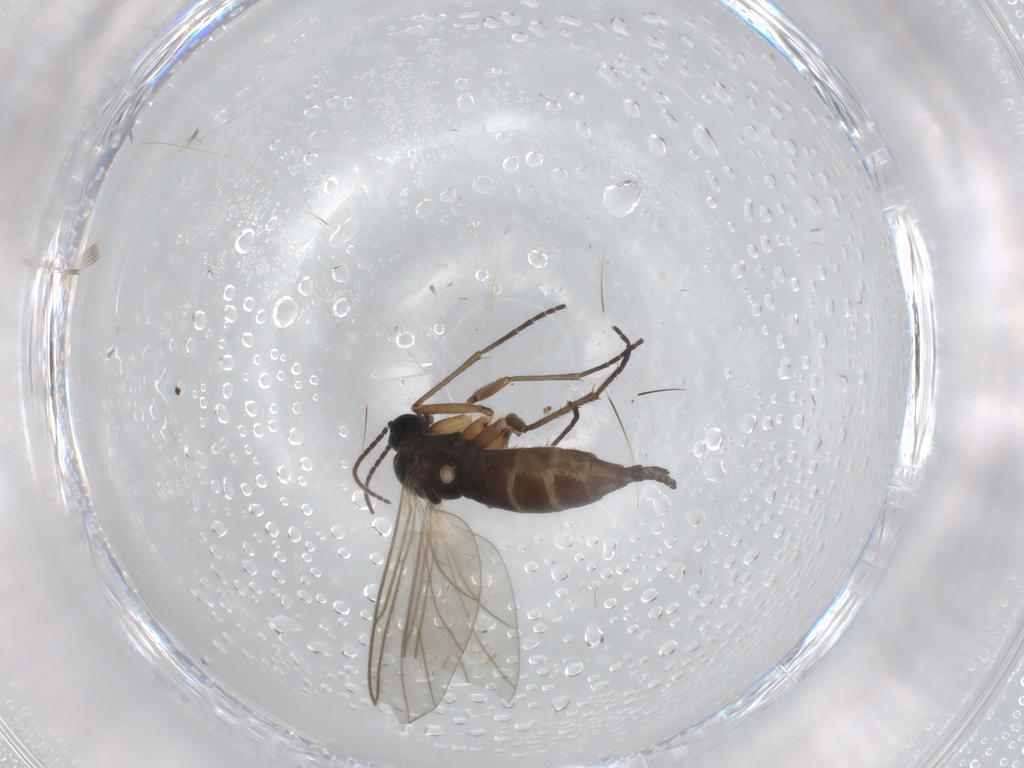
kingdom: Animalia
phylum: Arthropoda
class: Insecta
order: Diptera
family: Sciaridae
